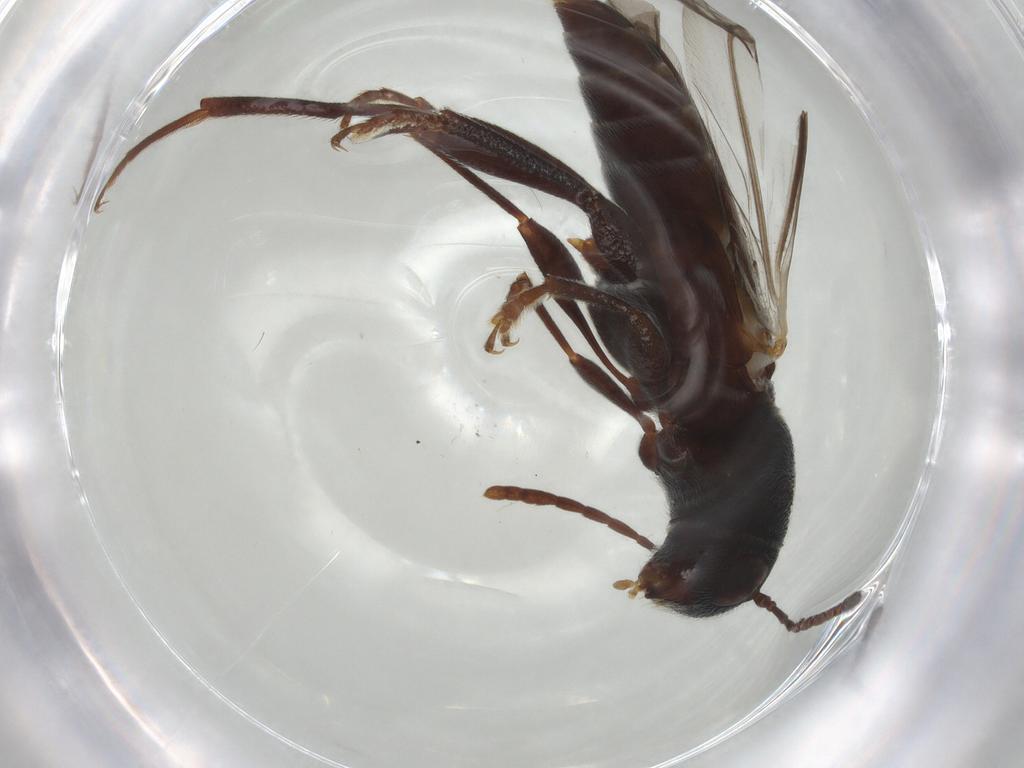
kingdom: Animalia
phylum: Arthropoda
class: Insecta
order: Coleoptera
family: Cerambycidae
